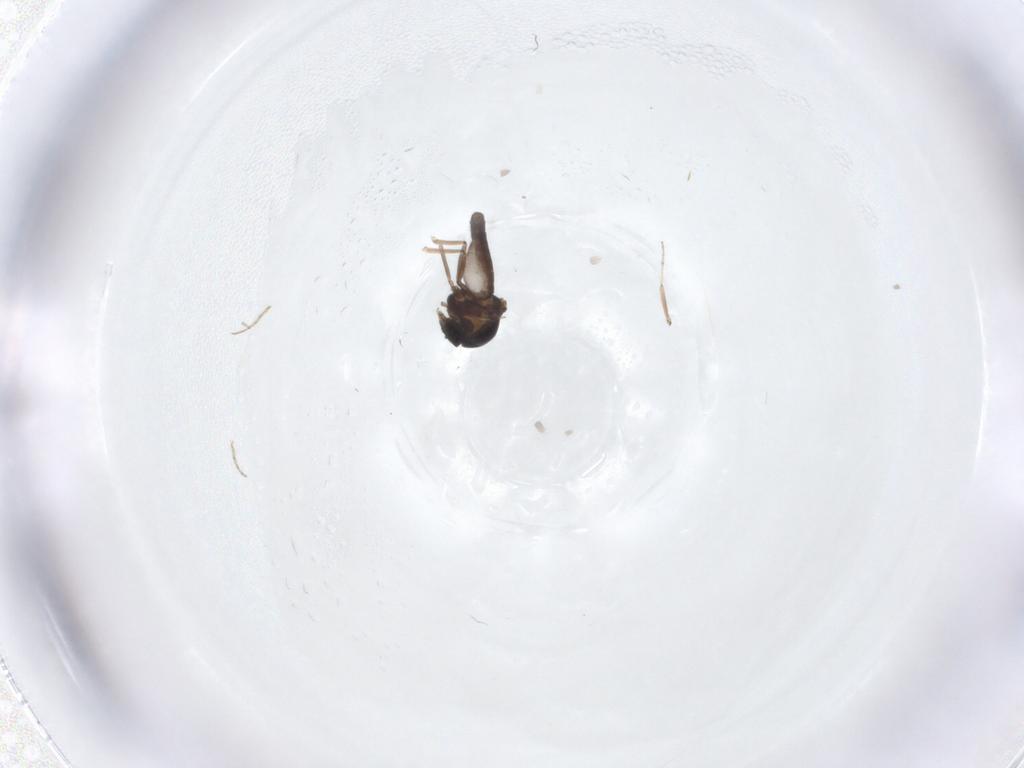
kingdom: Animalia
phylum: Arthropoda
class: Insecta
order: Diptera
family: Ceratopogonidae
